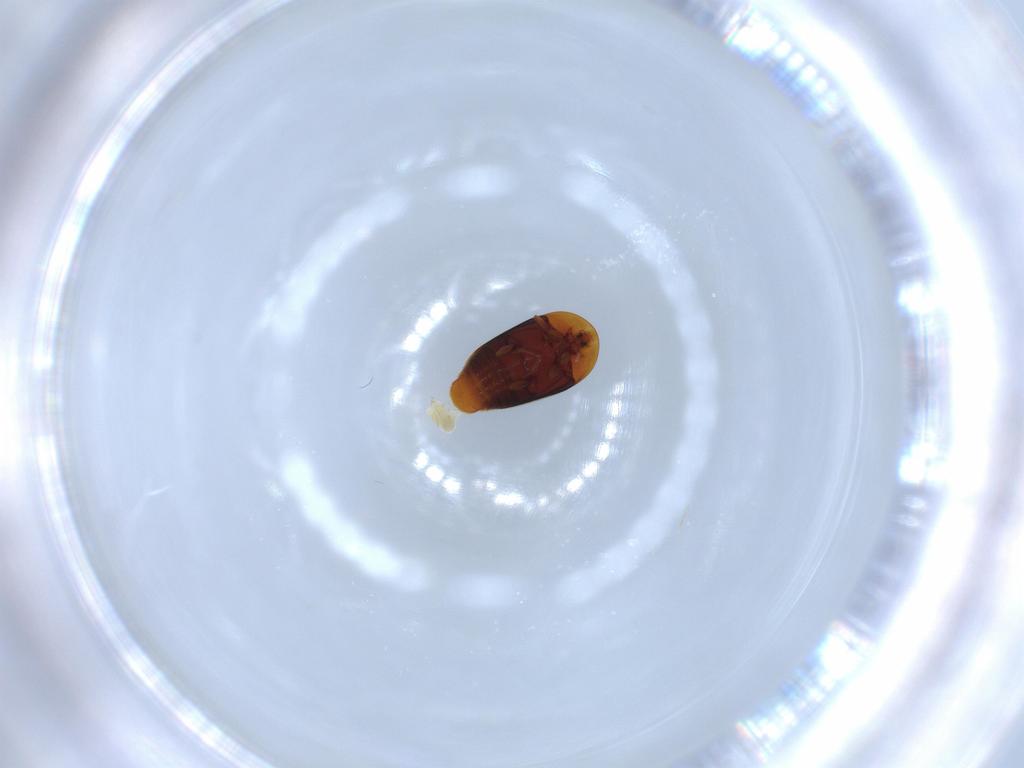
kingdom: Animalia
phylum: Arthropoda
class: Insecta
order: Coleoptera
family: Corylophidae
